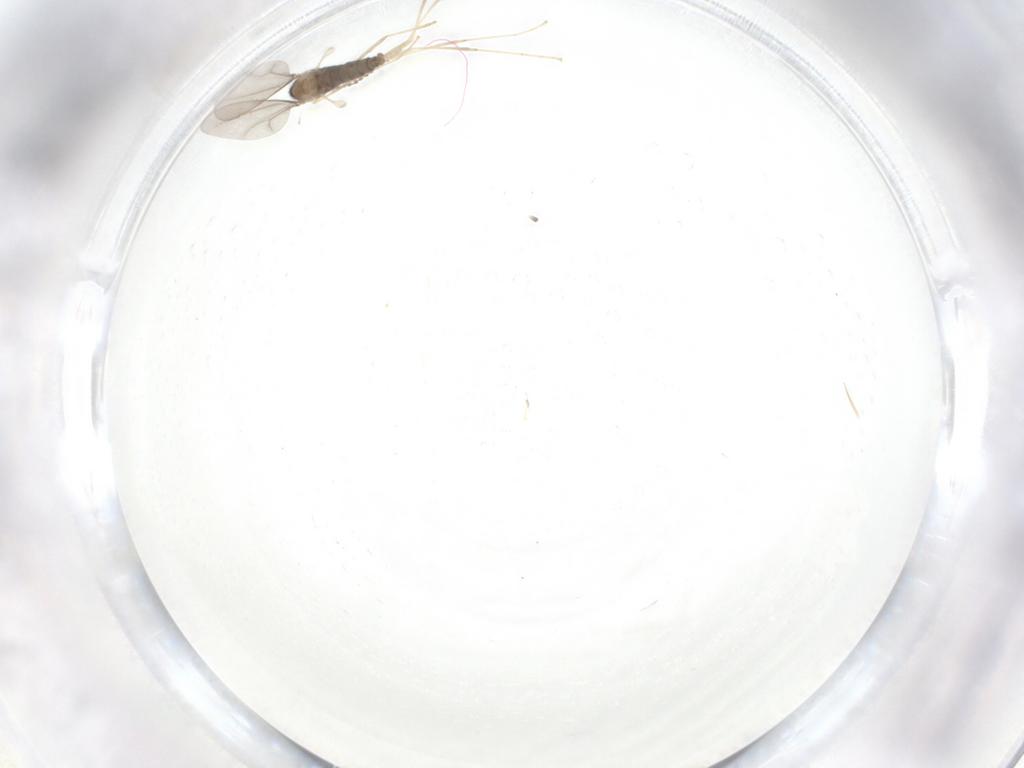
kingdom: Animalia
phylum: Arthropoda
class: Insecta
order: Diptera
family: Cecidomyiidae
